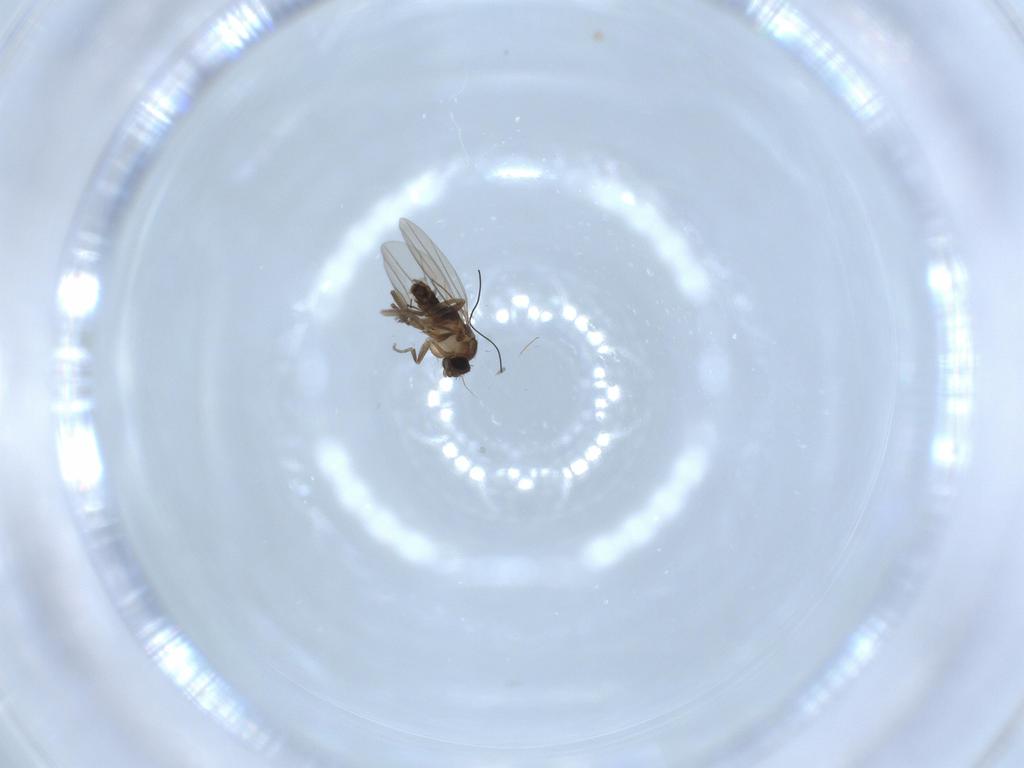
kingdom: Animalia
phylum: Arthropoda
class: Insecta
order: Diptera
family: Phoridae
